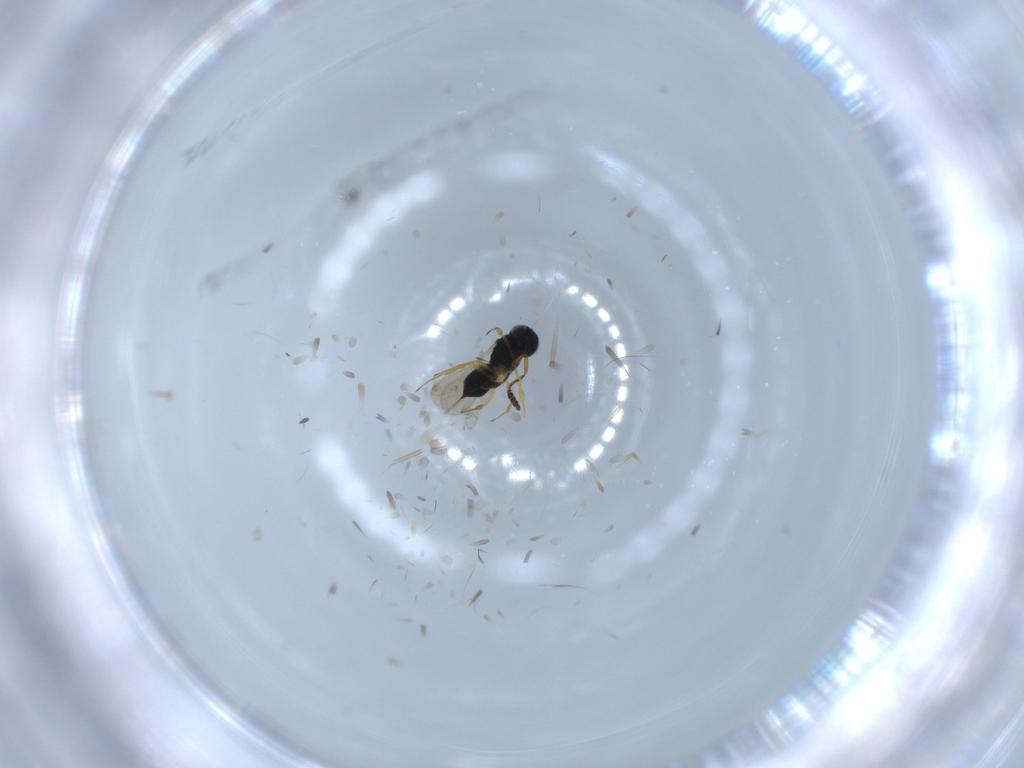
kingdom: Animalia
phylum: Arthropoda
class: Insecta
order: Hymenoptera
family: Scelionidae
